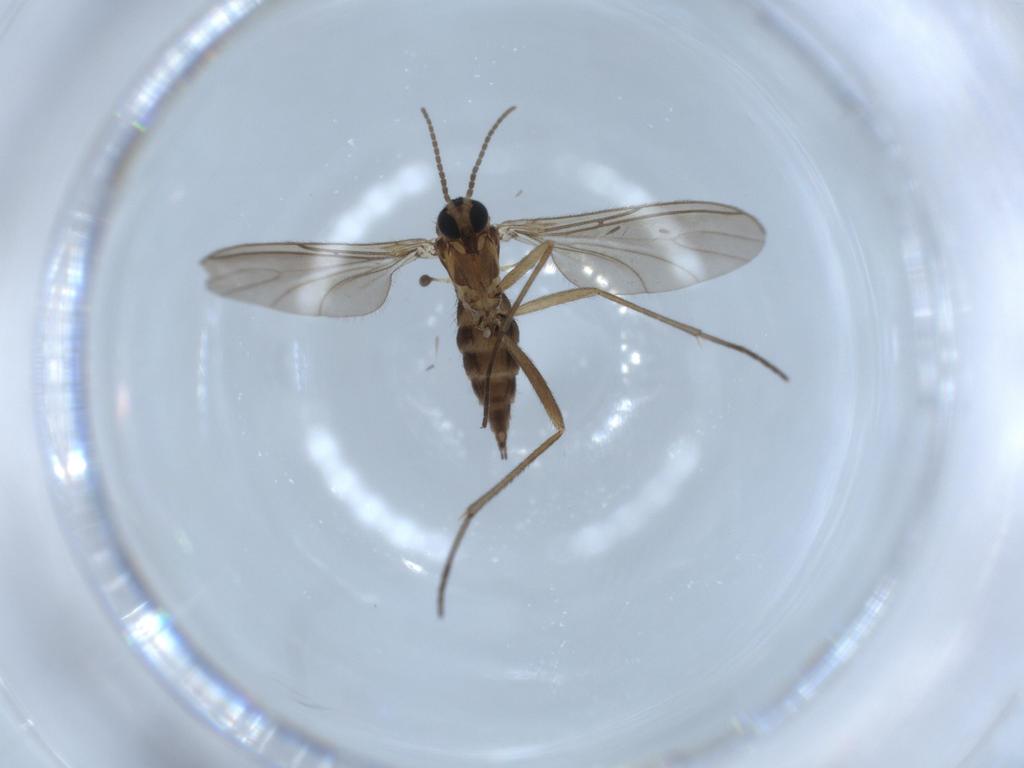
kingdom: Animalia
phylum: Arthropoda
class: Insecta
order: Diptera
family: Sciaridae
